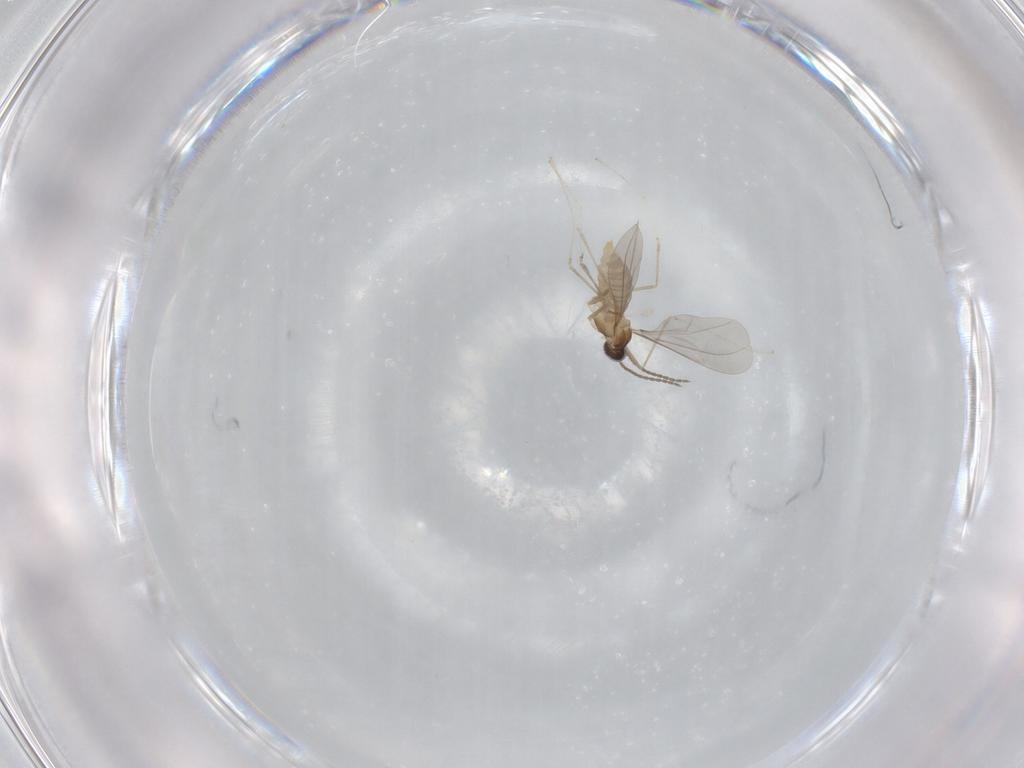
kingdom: Animalia
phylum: Arthropoda
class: Insecta
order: Diptera
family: Cecidomyiidae
